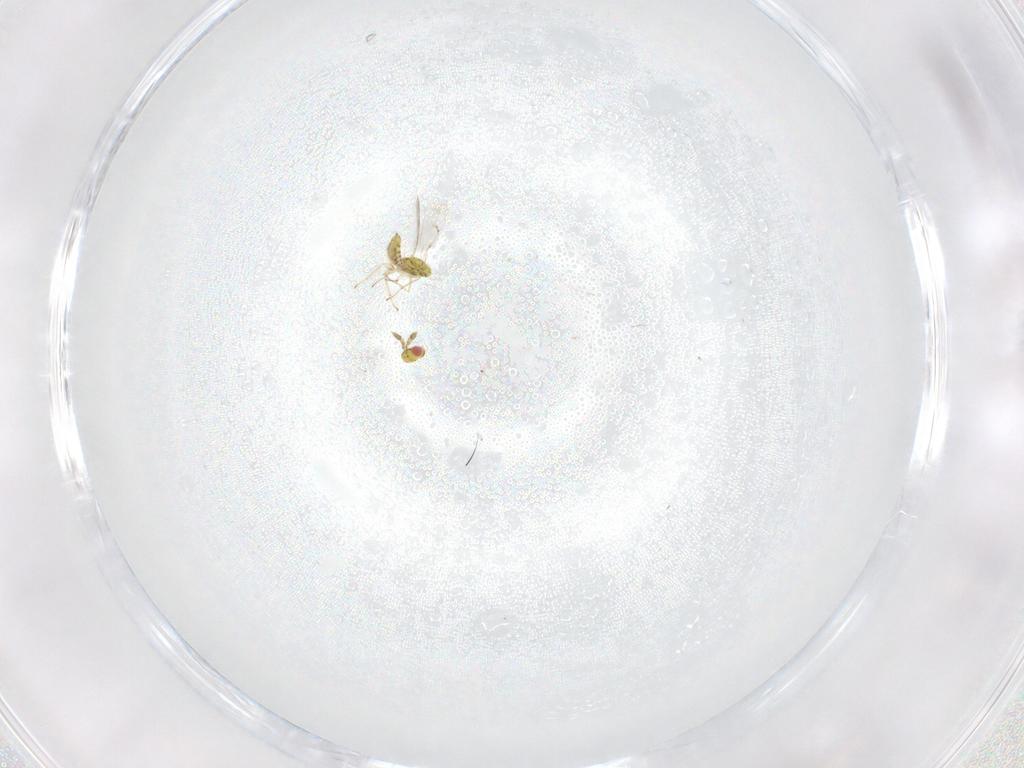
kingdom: Animalia
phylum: Arthropoda
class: Insecta
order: Hymenoptera
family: Eulophidae
